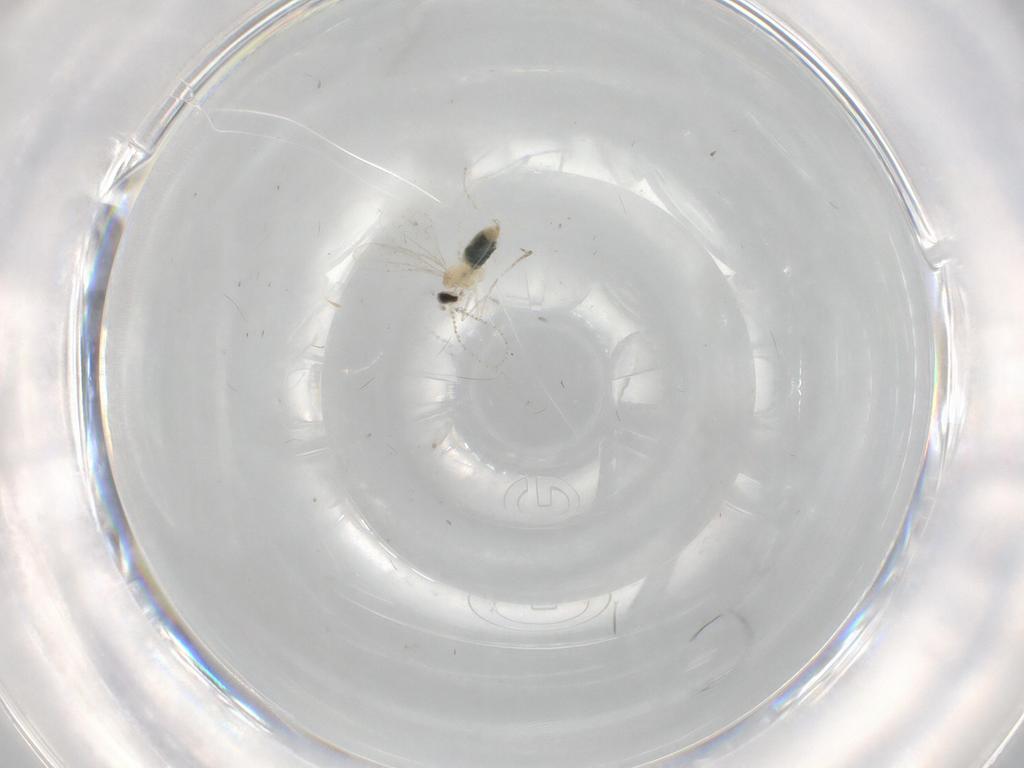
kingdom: Animalia
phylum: Arthropoda
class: Insecta
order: Diptera
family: Cecidomyiidae
